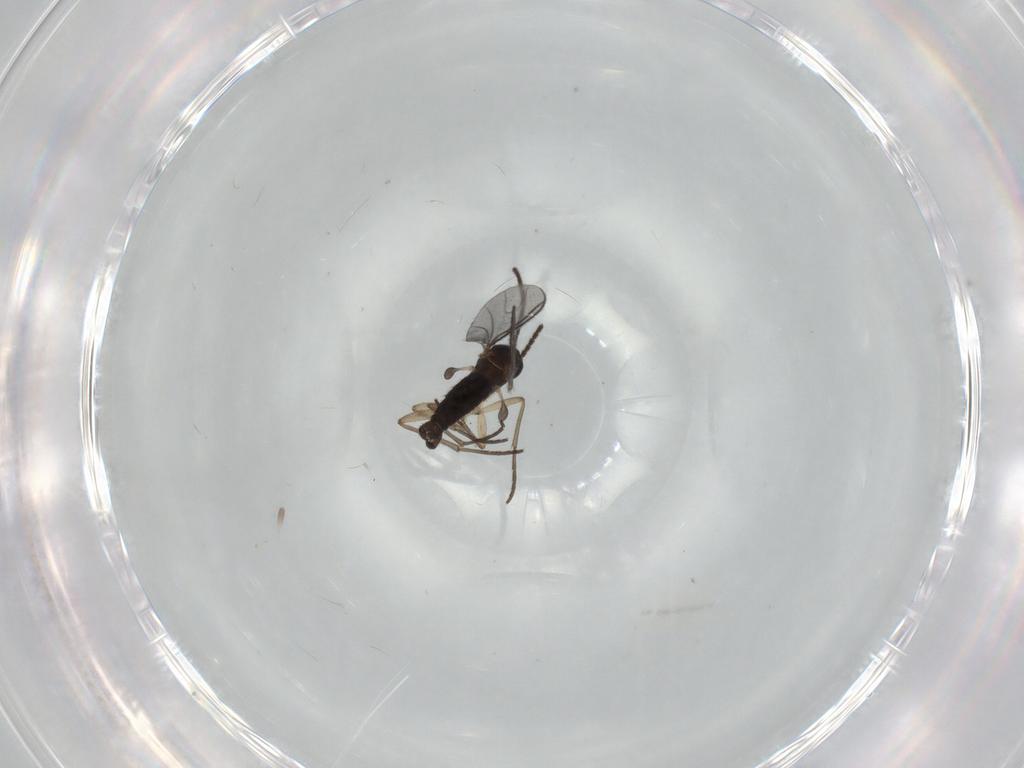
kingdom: Animalia
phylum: Arthropoda
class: Insecta
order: Diptera
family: Sciaridae
